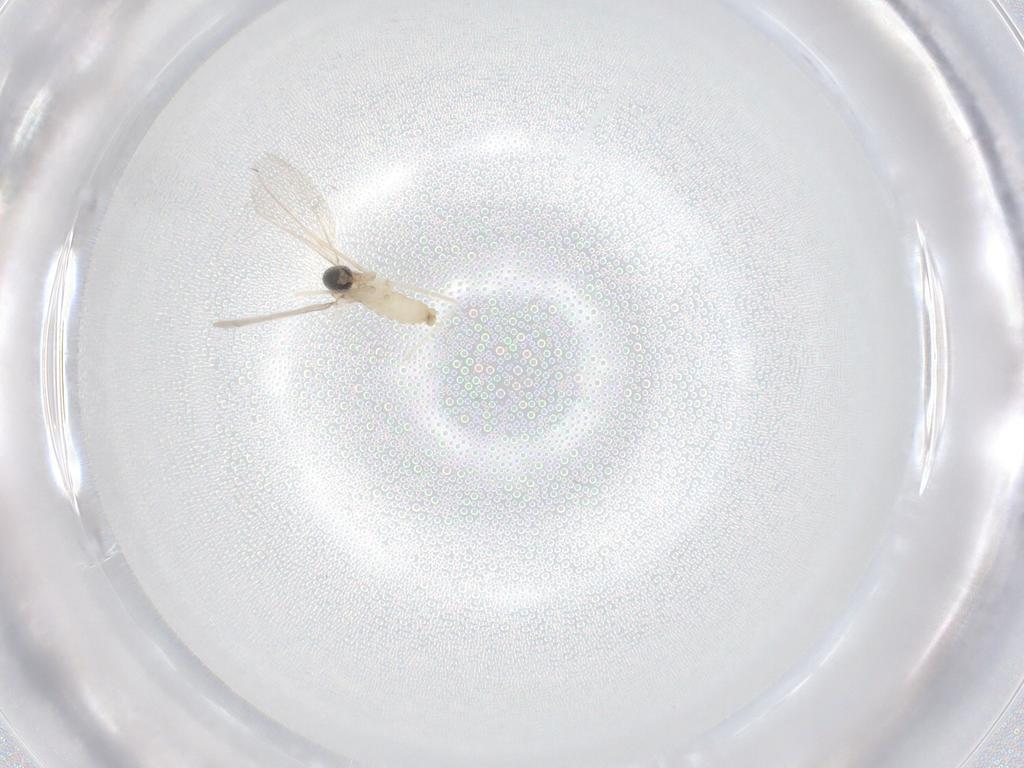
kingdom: Animalia
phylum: Arthropoda
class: Insecta
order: Diptera
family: Cecidomyiidae
